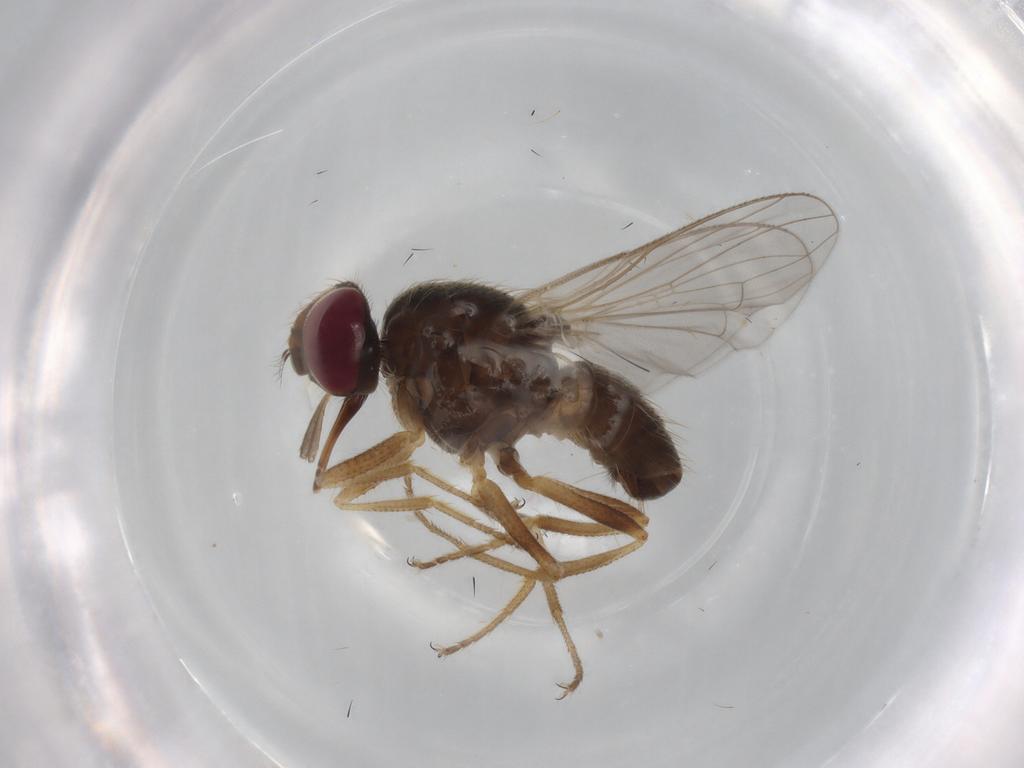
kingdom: Animalia
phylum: Arthropoda
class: Insecta
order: Diptera
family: Muscidae
